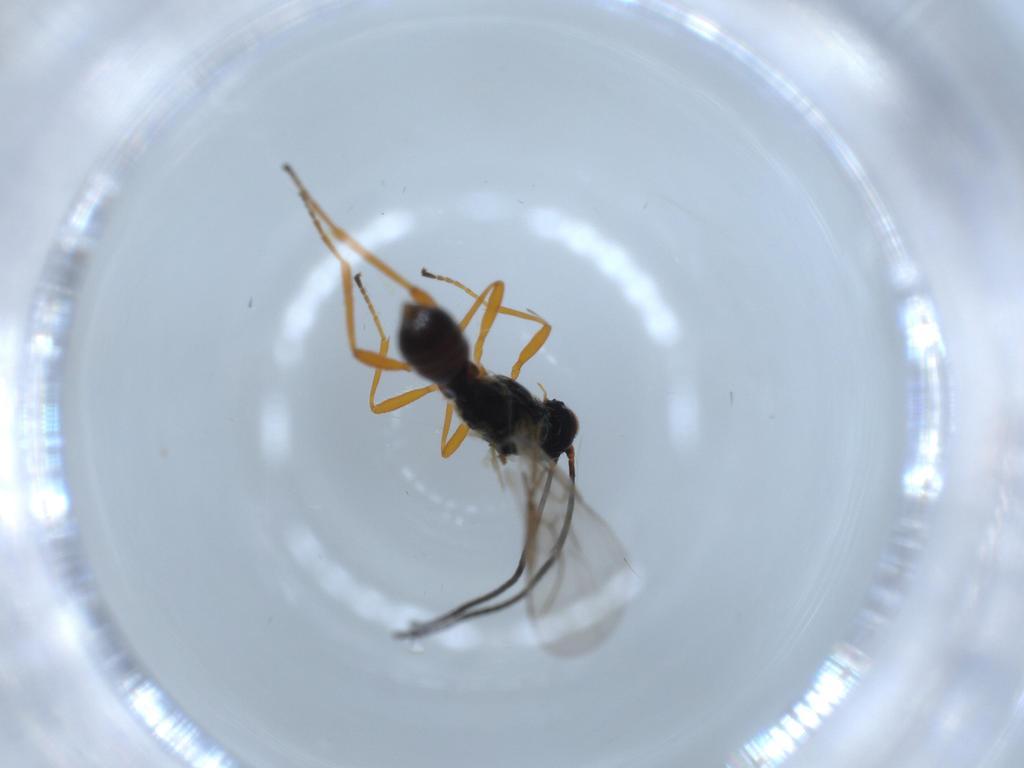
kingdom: Animalia
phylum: Arthropoda
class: Insecta
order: Hymenoptera
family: Braconidae
